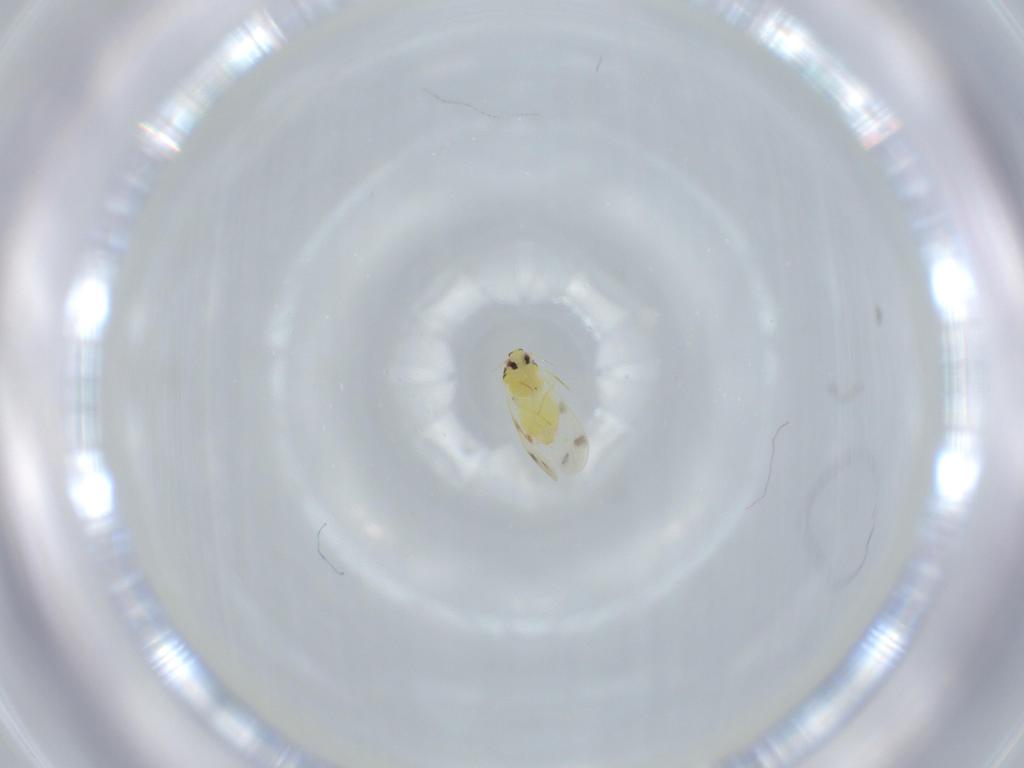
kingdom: Animalia
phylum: Arthropoda
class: Insecta
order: Hemiptera
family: Aleyrodidae
